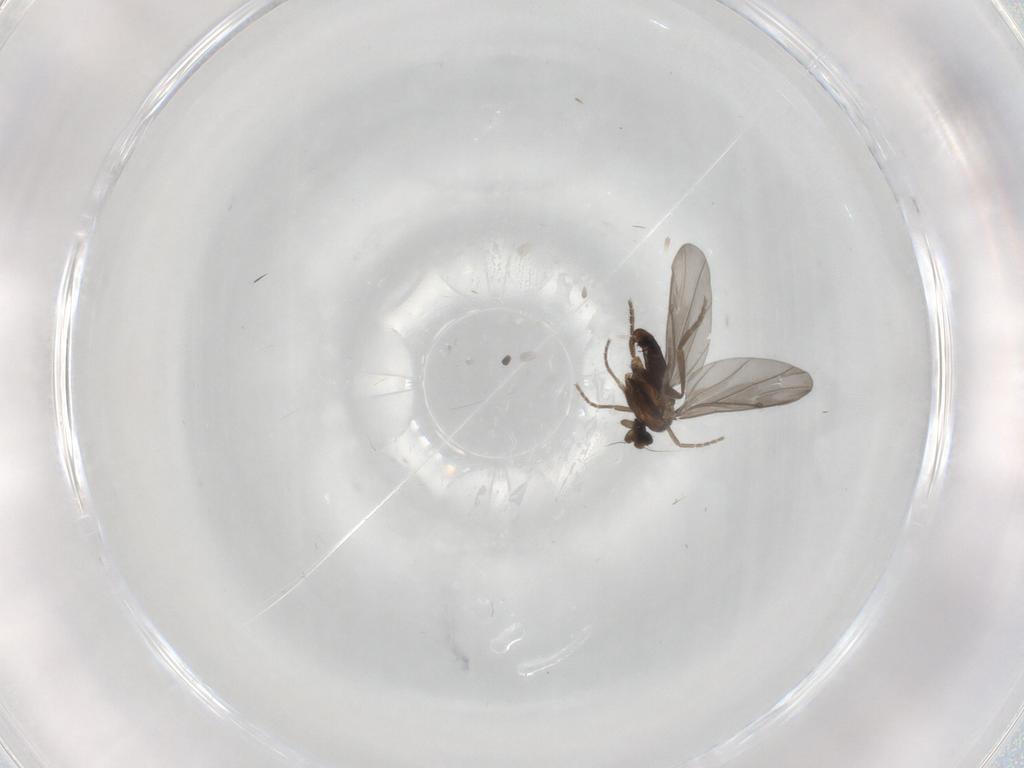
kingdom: Animalia
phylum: Arthropoda
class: Insecta
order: Diptera
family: Phoridae
